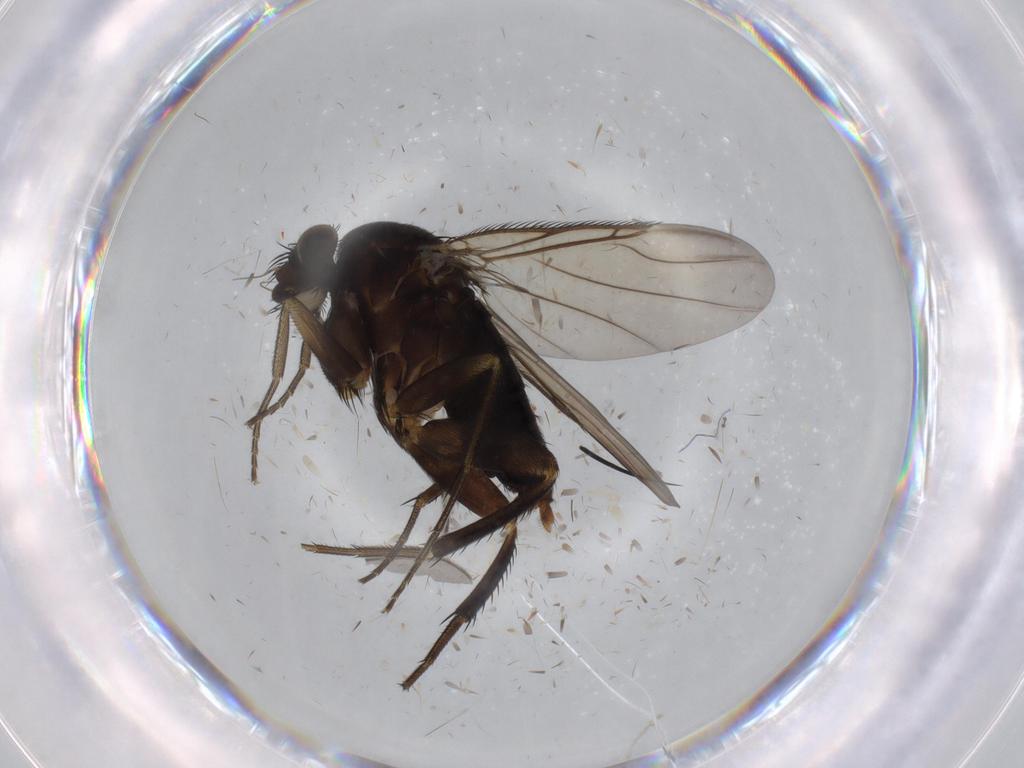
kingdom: Animalia
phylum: Arthropoda
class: Insecta
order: Diptera
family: Phoridae
